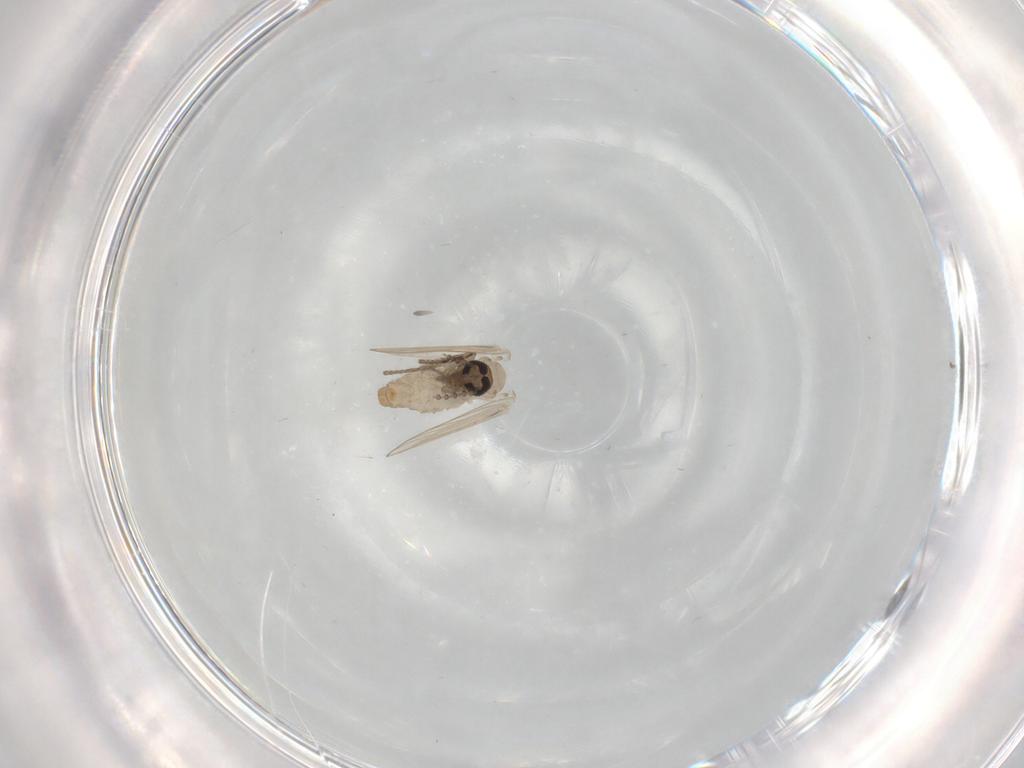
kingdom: Animalia
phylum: Arthropoda
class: Insecta
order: Diptera
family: Psychodidae
